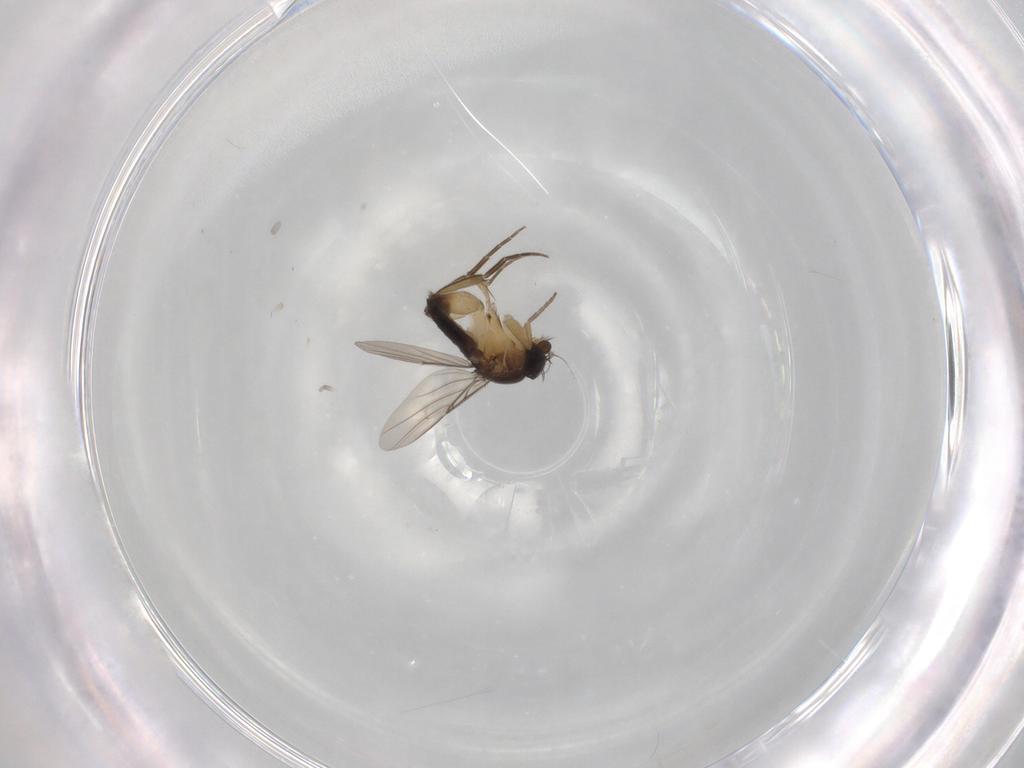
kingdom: Animalia
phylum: Arthropoda
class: Insecta
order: Diptera
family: Phoridae
